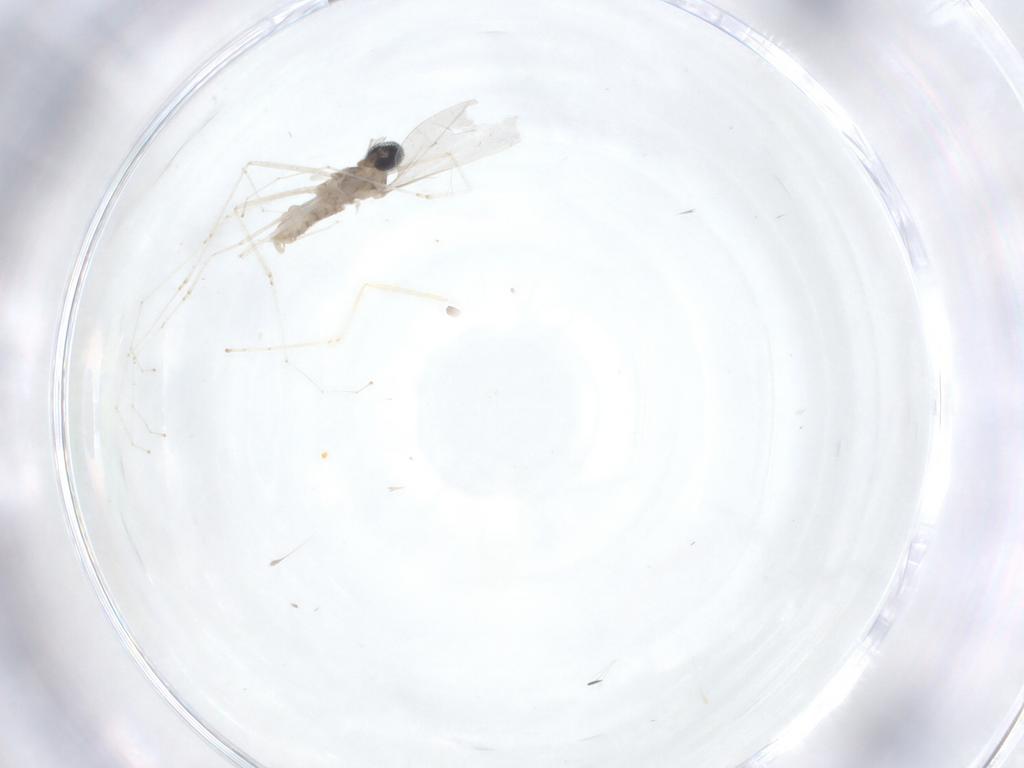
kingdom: Animalia
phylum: Arthropoda
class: Insecta
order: Diptera
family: Cecidomyiidae
